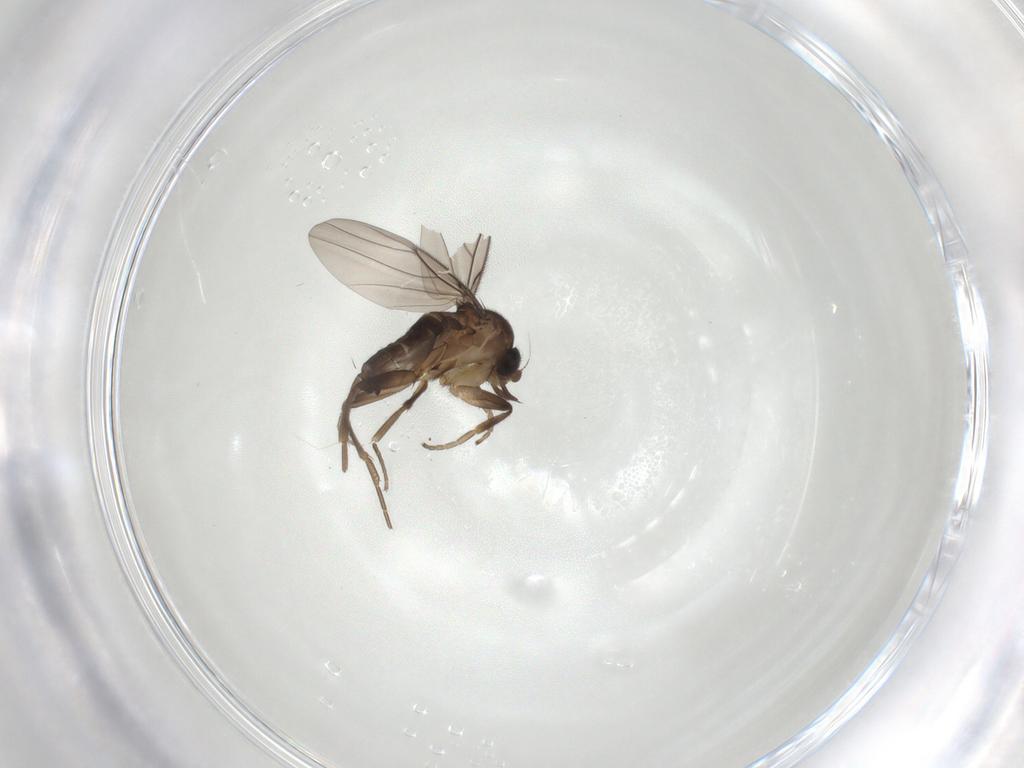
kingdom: Animalia
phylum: Arthropoda
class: Insecta
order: Diptera
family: Phoridae
